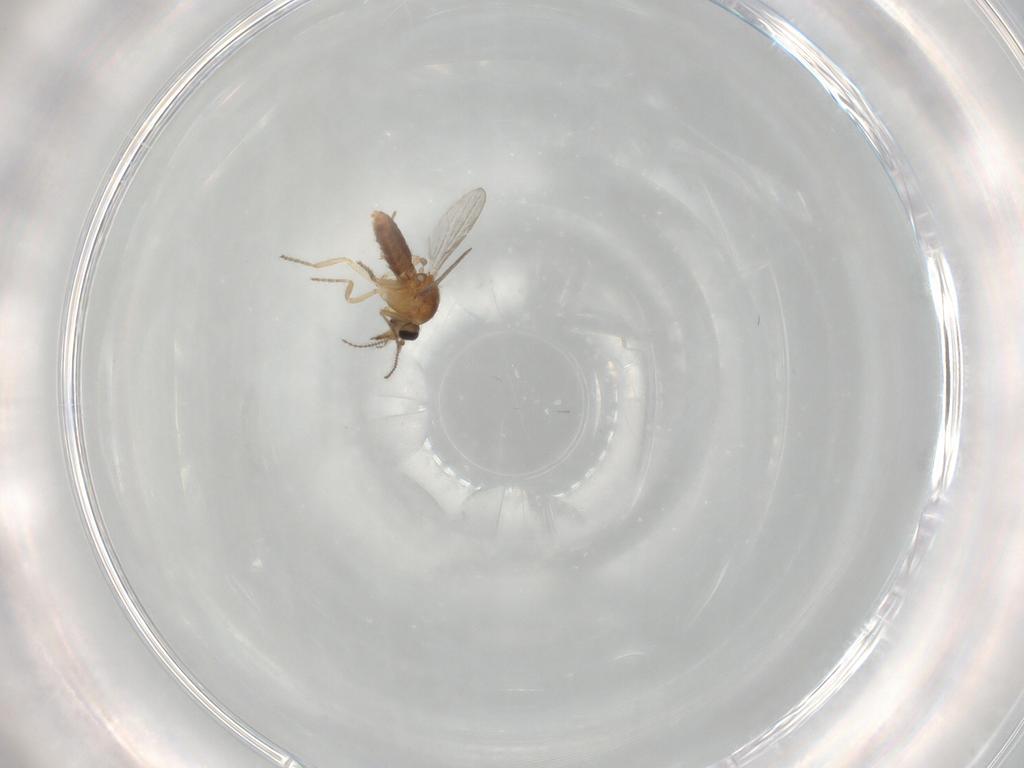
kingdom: Animalia
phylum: Arthropoda
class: Insecta
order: Diptera
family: Ceratopogonidae
